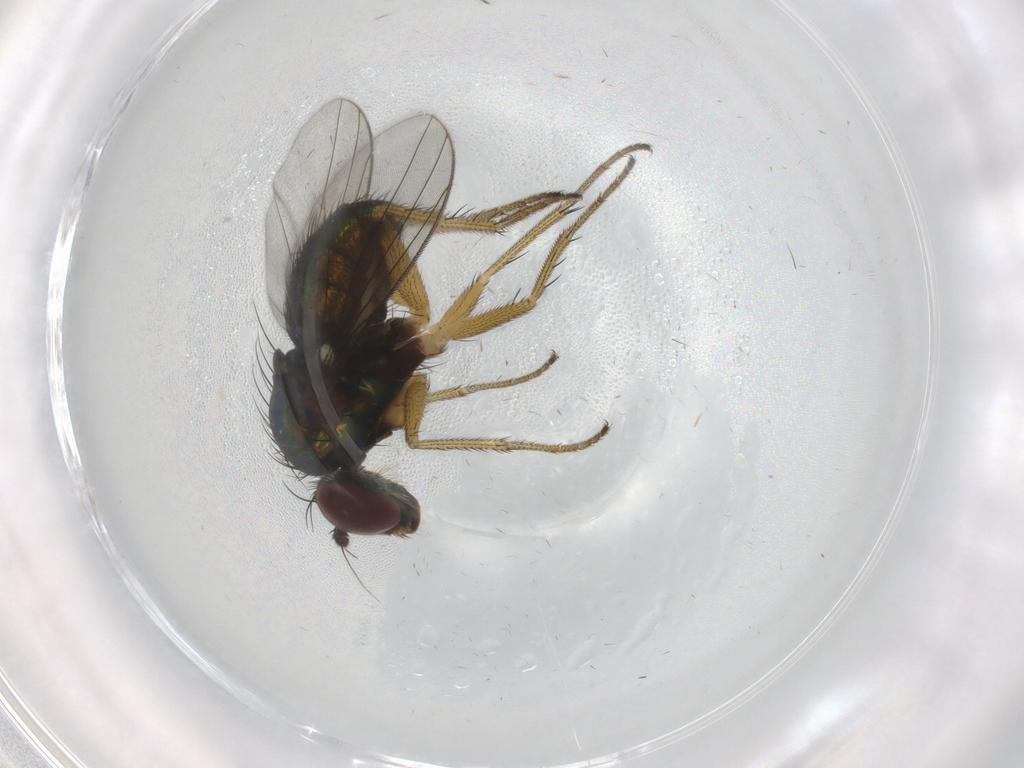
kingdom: Animalia
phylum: Arthropoda
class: Insecta
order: Diptera
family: Dolichopodidae
